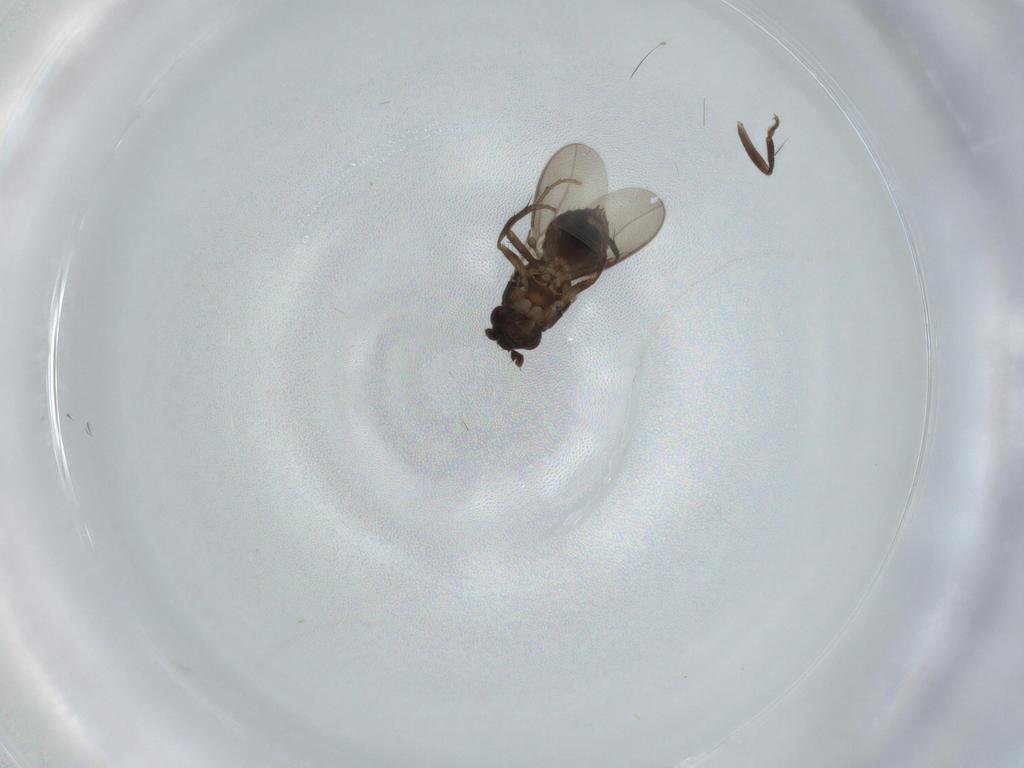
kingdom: Animalia
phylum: Arthropoda
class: Insecta
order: Diptera
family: Sphaeroceridae
